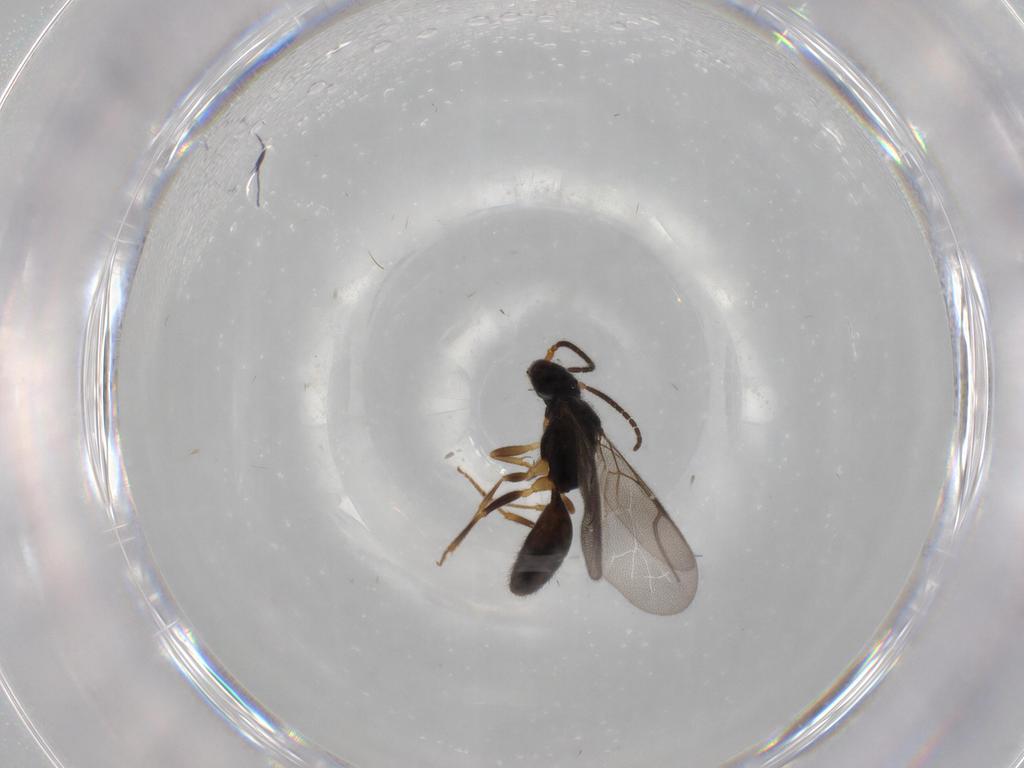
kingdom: Animalia
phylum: Arthropoda
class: Insecta
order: Hymenoptera
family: Bethylidae
